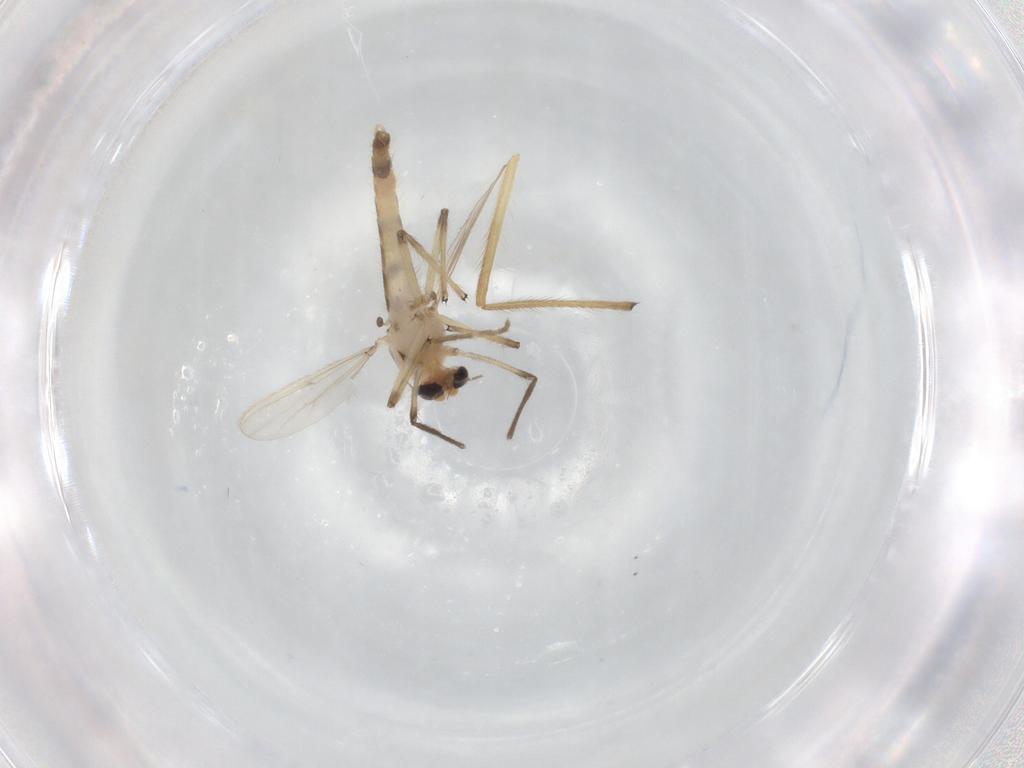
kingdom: Animalia
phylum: Arthropoda
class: Insecta
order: Diptera
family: Chironomidae
